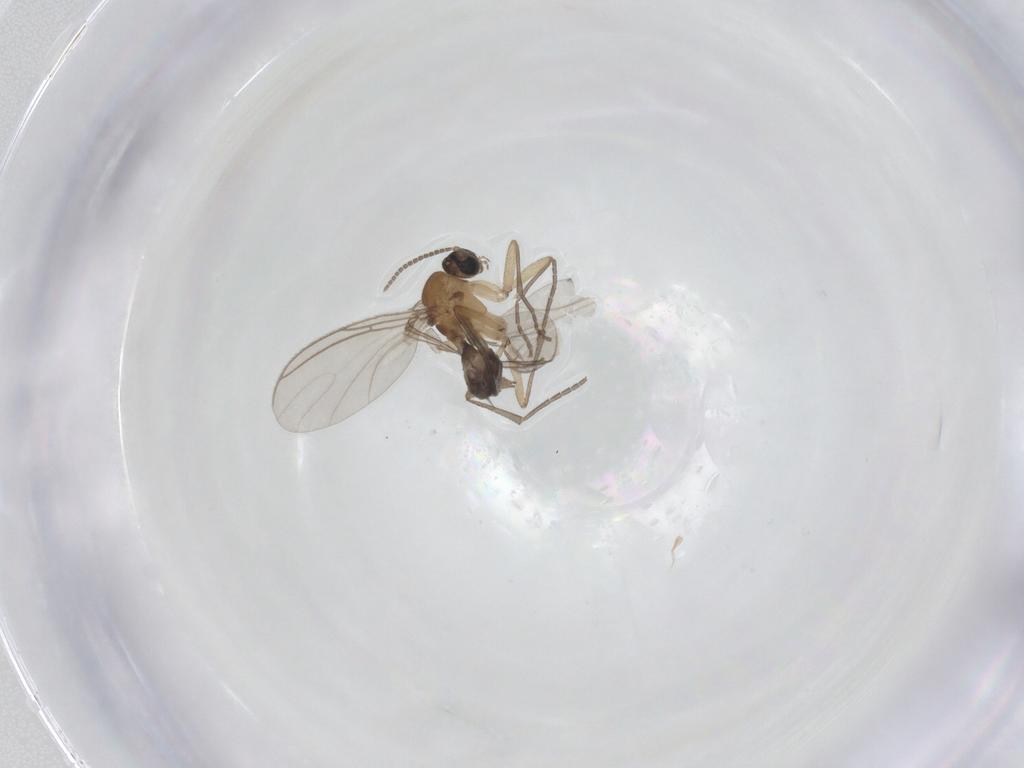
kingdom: Animalia
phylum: Arthropoda
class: Insecta
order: Diptera
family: Sciaridae
